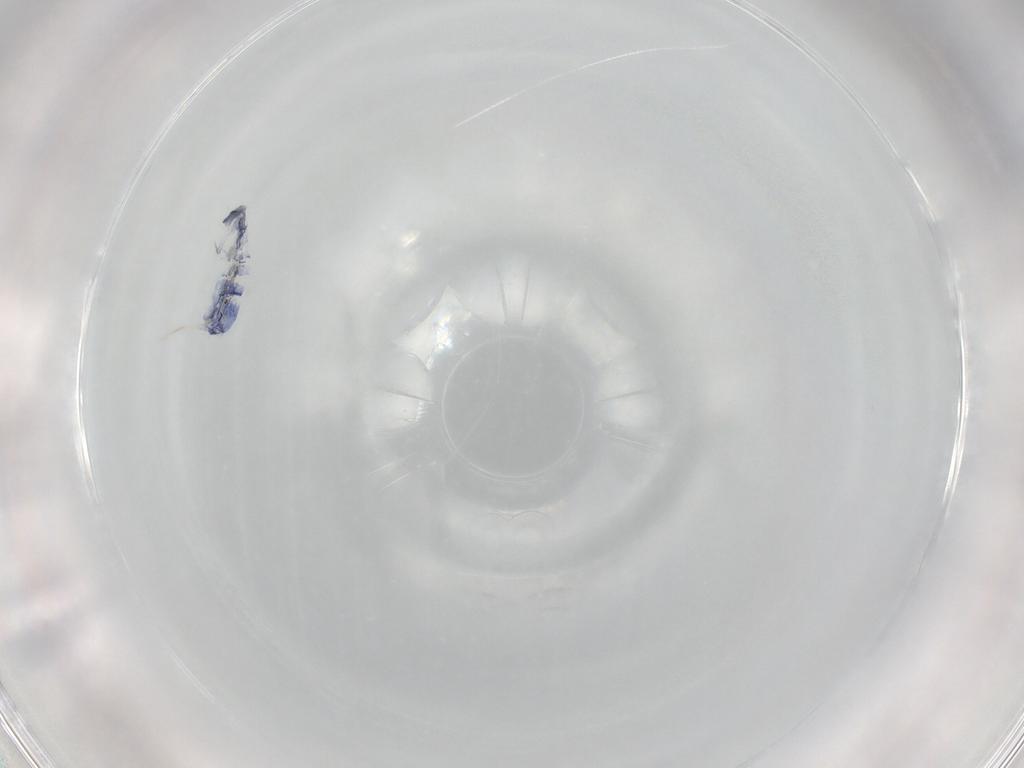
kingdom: Animalia
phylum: Arthropoda
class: Collembola
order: Entomobryomorpha
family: Entomobryidae
